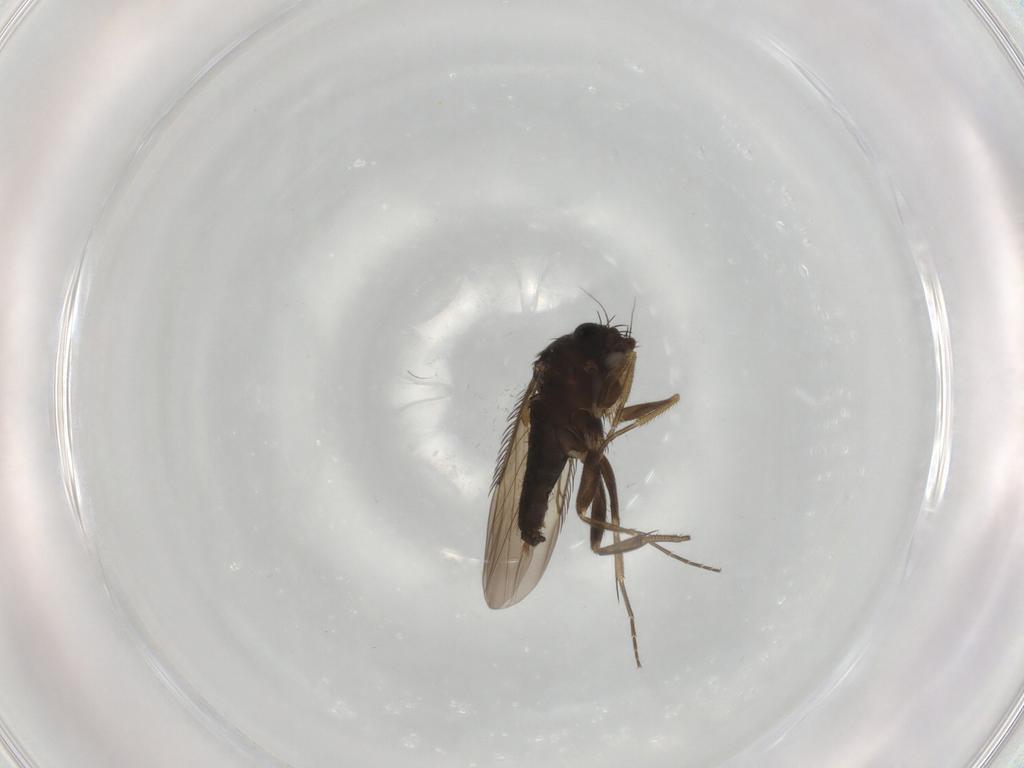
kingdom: Animalia
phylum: Arthropoda
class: Insecta
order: Diptera
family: Phoridae
